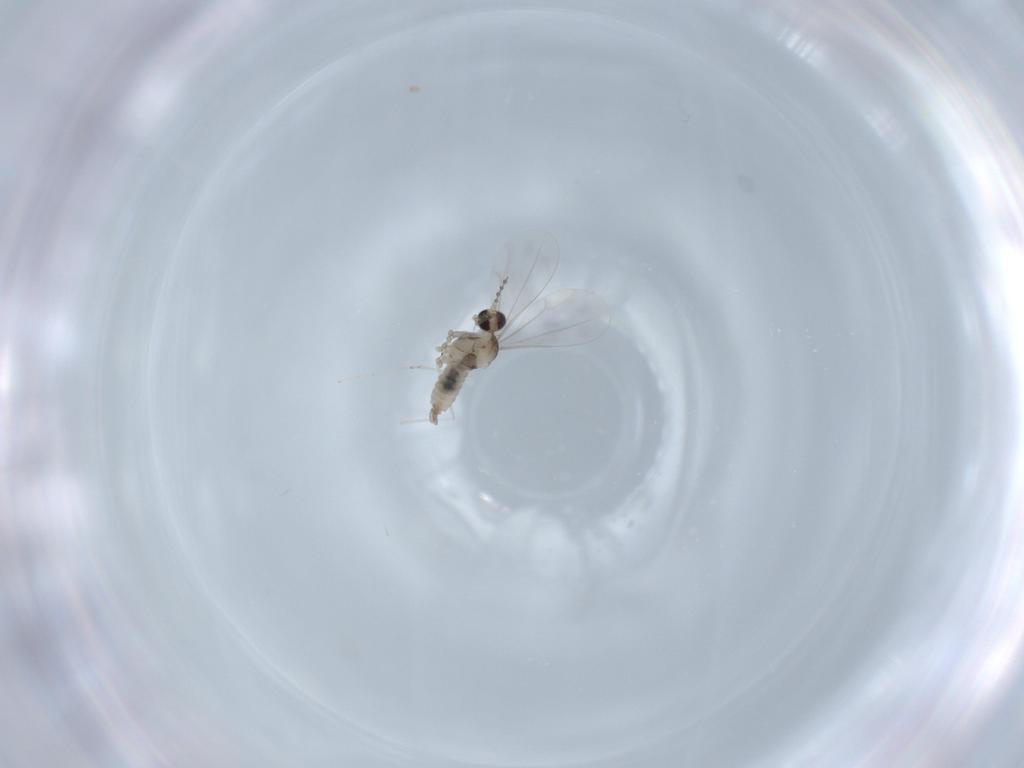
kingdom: Animalia
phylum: Arthropoda
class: Insecta
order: Diptera
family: Cecidomyiidae
